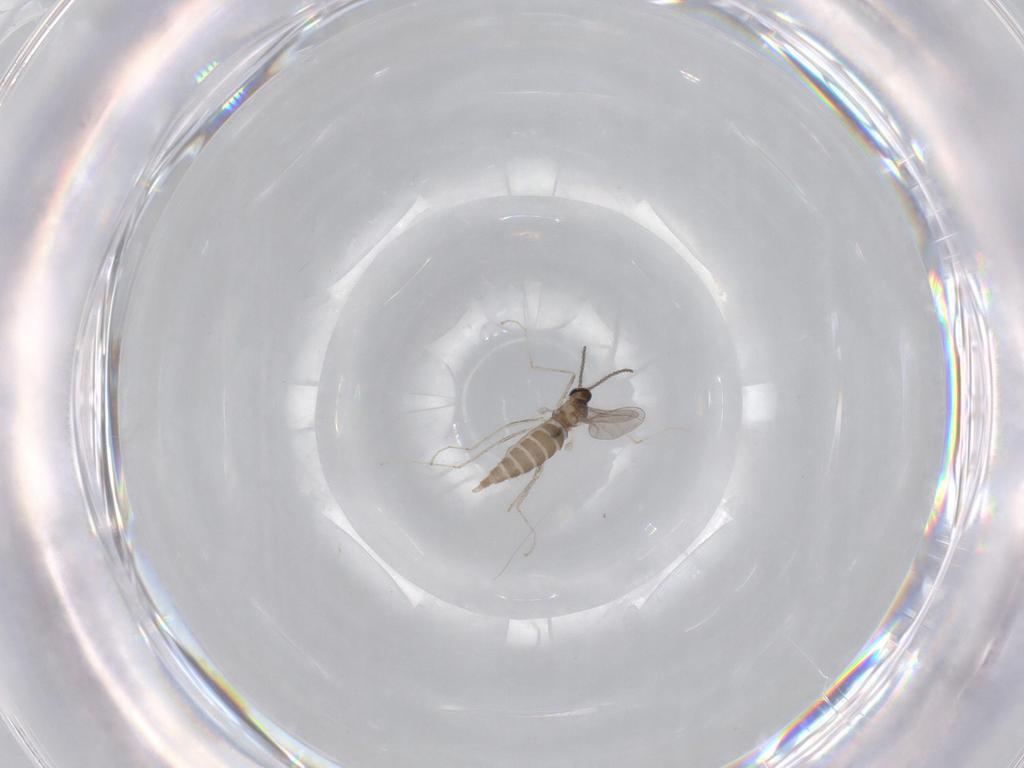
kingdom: Animalia
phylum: Arthropoda
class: Insecta
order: Diptera
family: Cecidomyiidae
